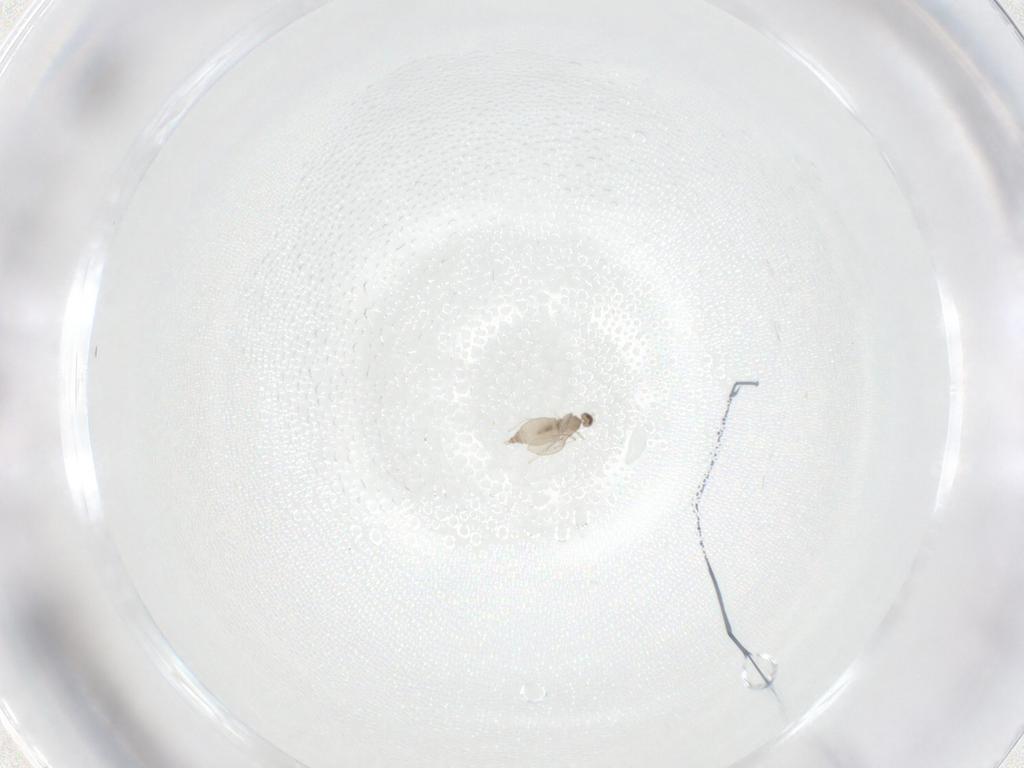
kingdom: Animalia
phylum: Arthropoda
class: Insecta
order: Diptera
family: Cecidomyiidae
